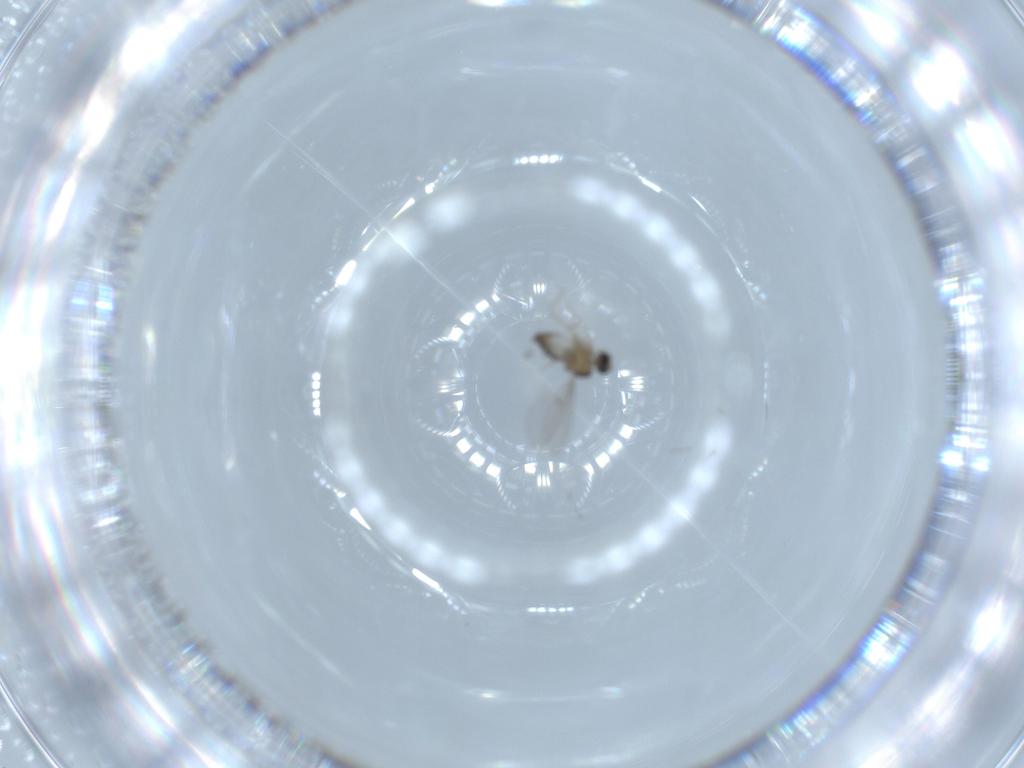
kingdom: Animalia
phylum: Arthropoda
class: Insecta
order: Diptera
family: Cecidomyiidae
